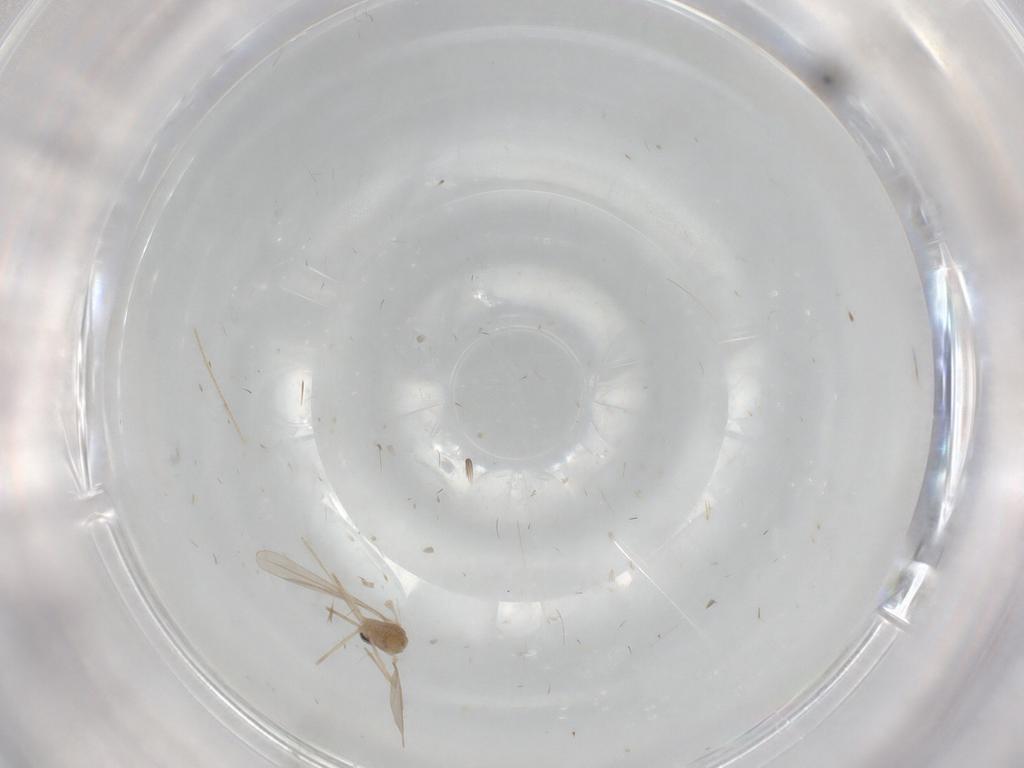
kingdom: Animalia
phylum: Arthropoda
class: Insecta
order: Diptera
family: Cecidomyiidae
